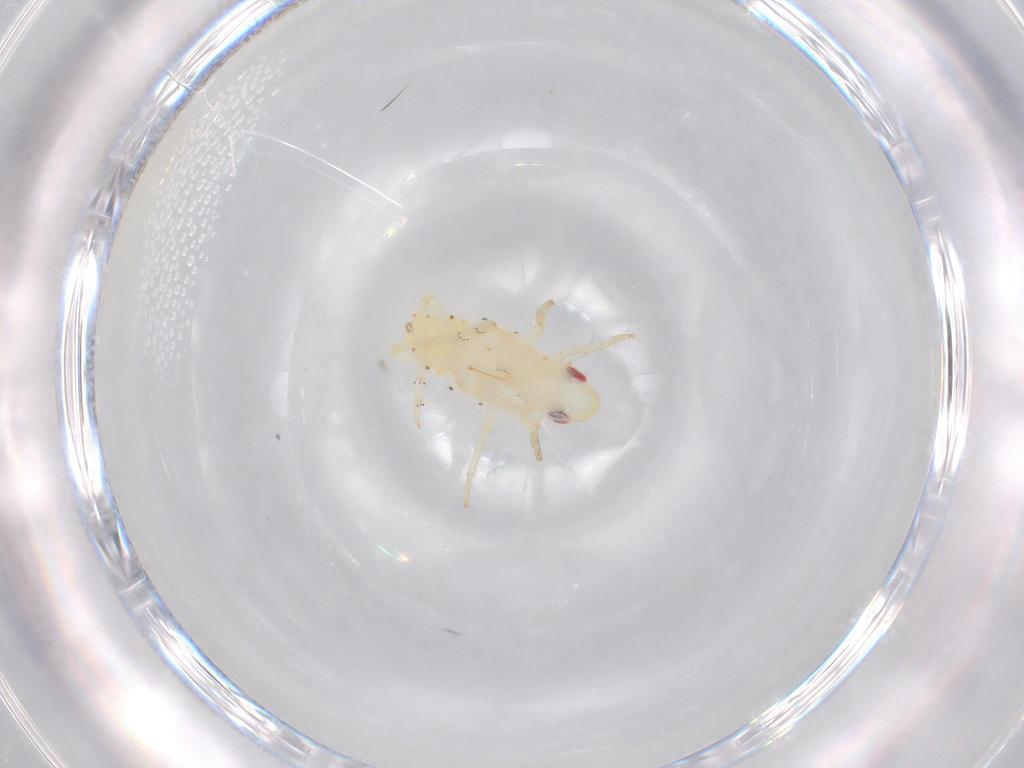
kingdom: Animalia
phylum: Arthropoda
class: Insecta
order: Hemiptera
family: Tropiduchidae
